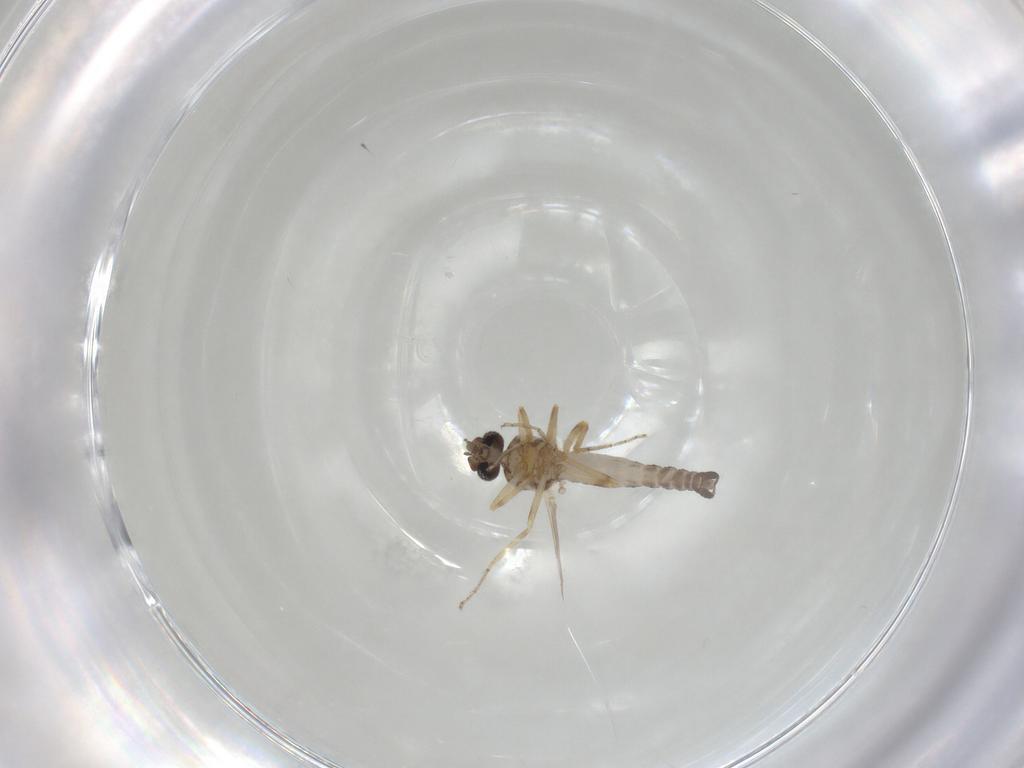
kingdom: Animalia
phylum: Arthropoda
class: Insecta
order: Diptera
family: Ceratopogonidae
